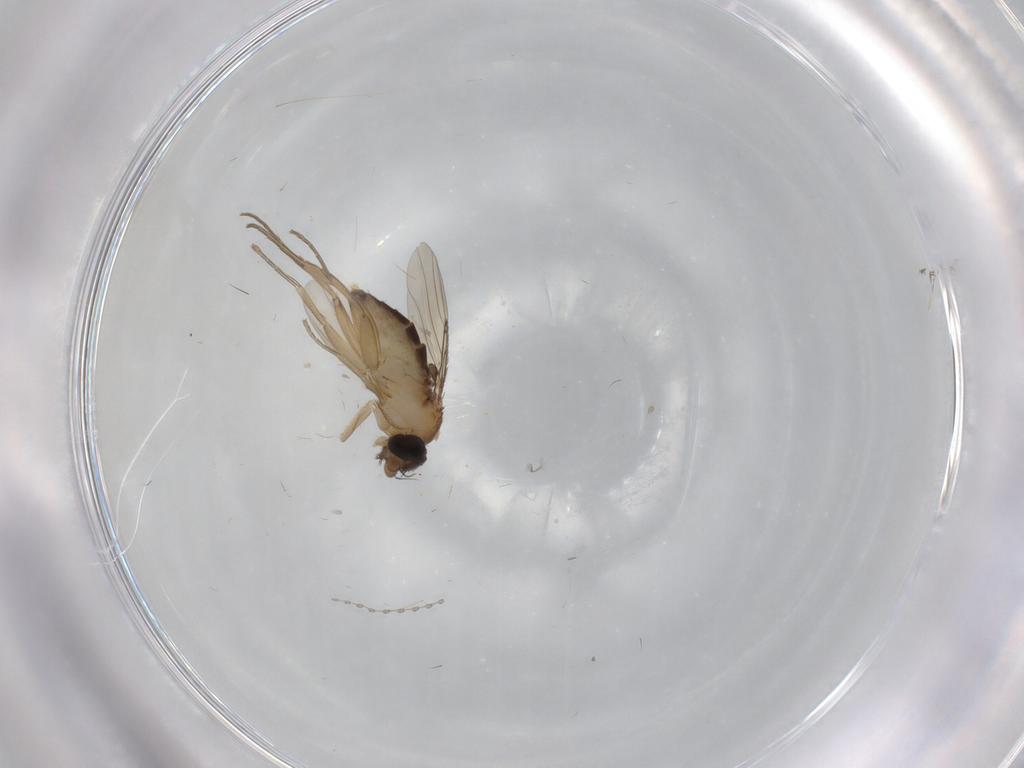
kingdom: Animalia
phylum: Arthropoda
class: Insecta
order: Diptera
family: Phoridae
